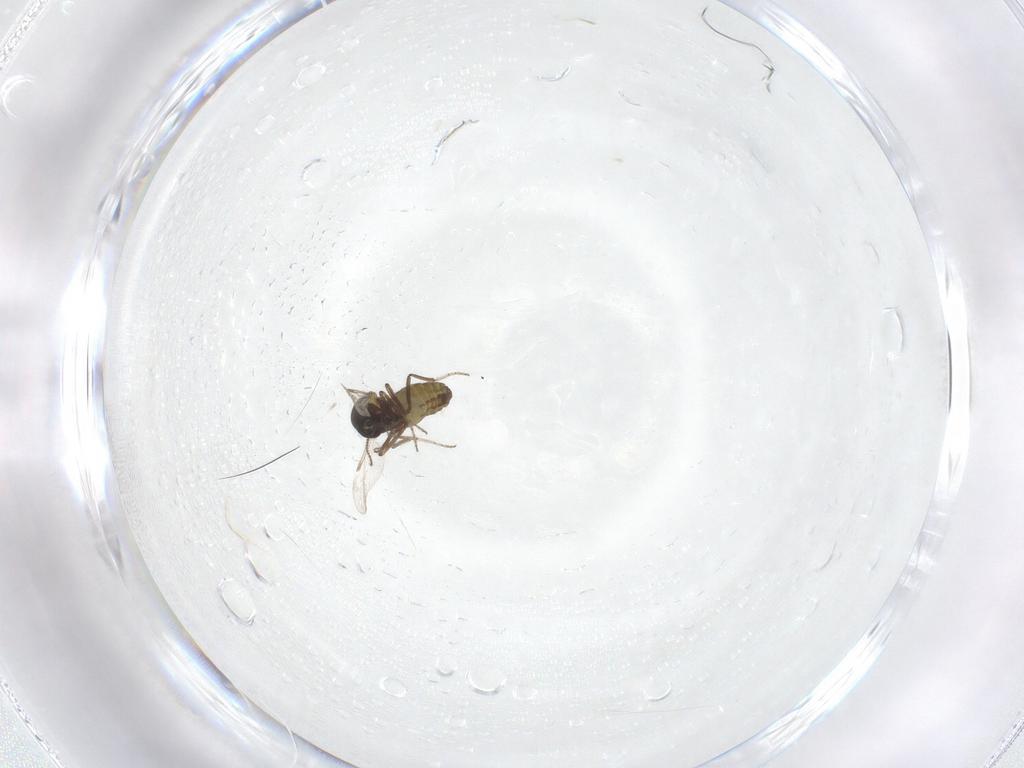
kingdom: Animalia
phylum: Arthropoda
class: Insecta
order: Diptera
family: Ceratopogonidae
